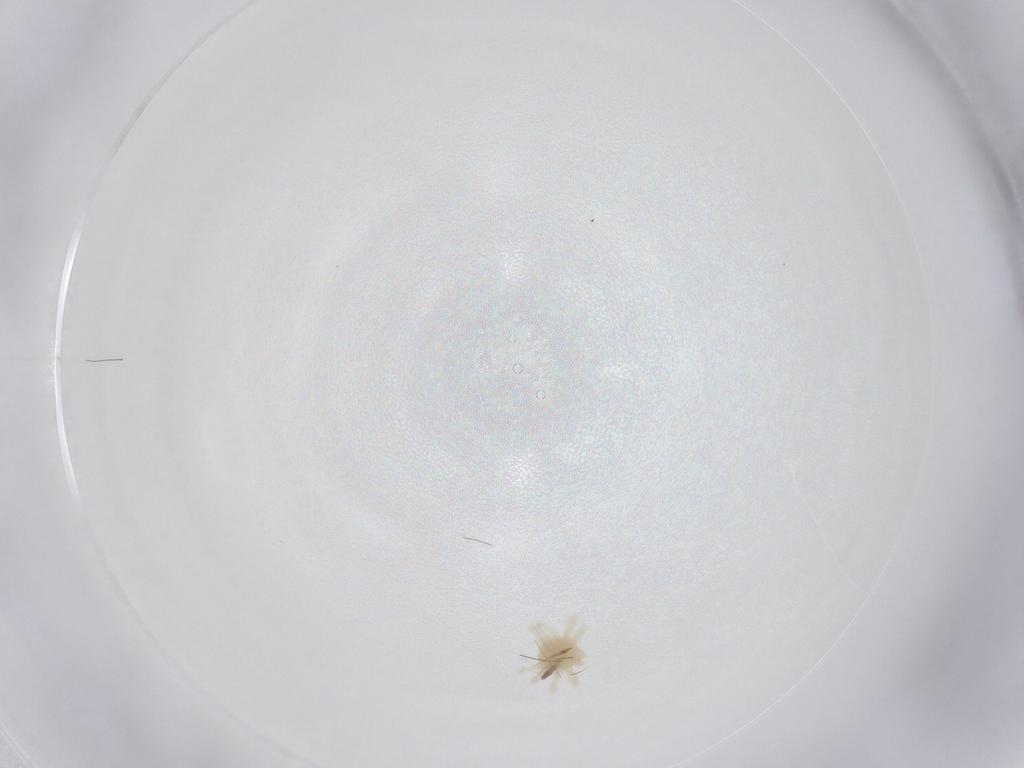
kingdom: Animalia
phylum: Arthropoda
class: Arachnida
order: Trombidiformes
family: Anystidae
